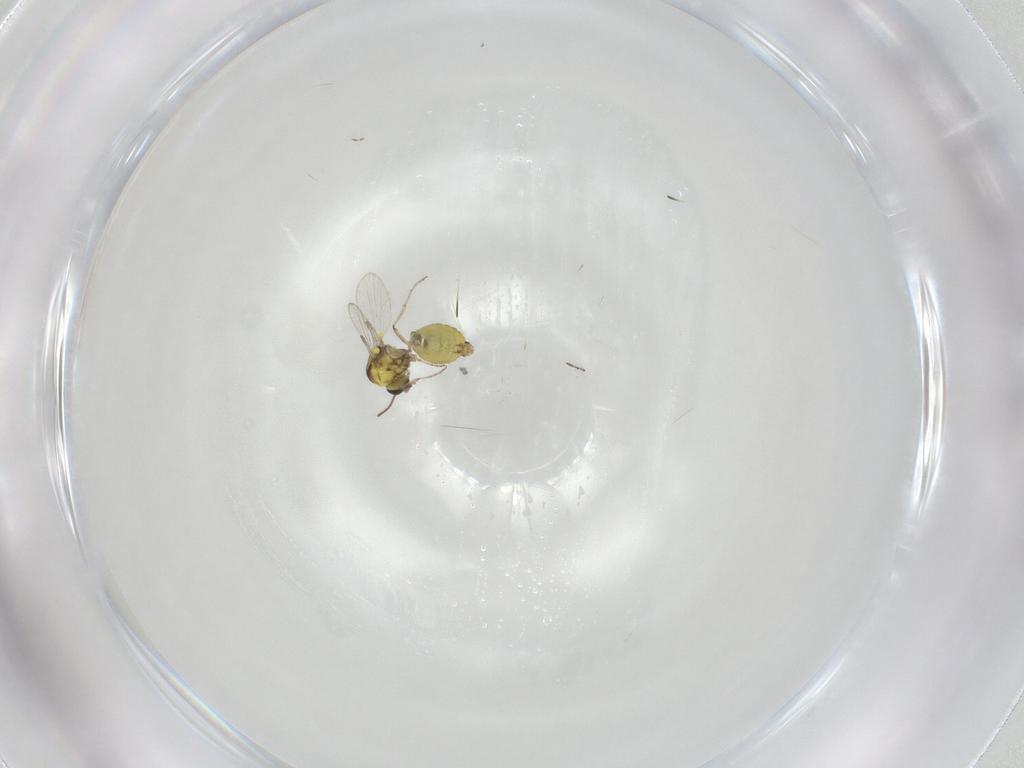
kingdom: Animalia
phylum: Arthropoda
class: Insecta
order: Diptera
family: Ceratopogonidae
